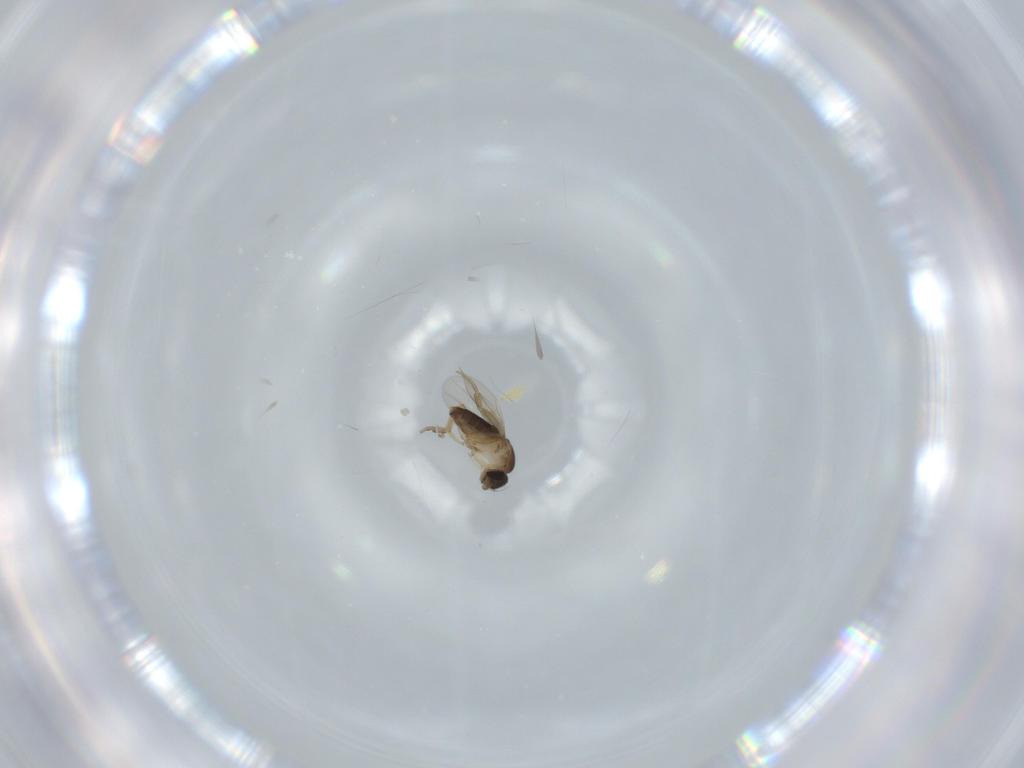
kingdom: Animalia
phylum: Arthropoda
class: Insecta
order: Diptera
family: Phoridae
